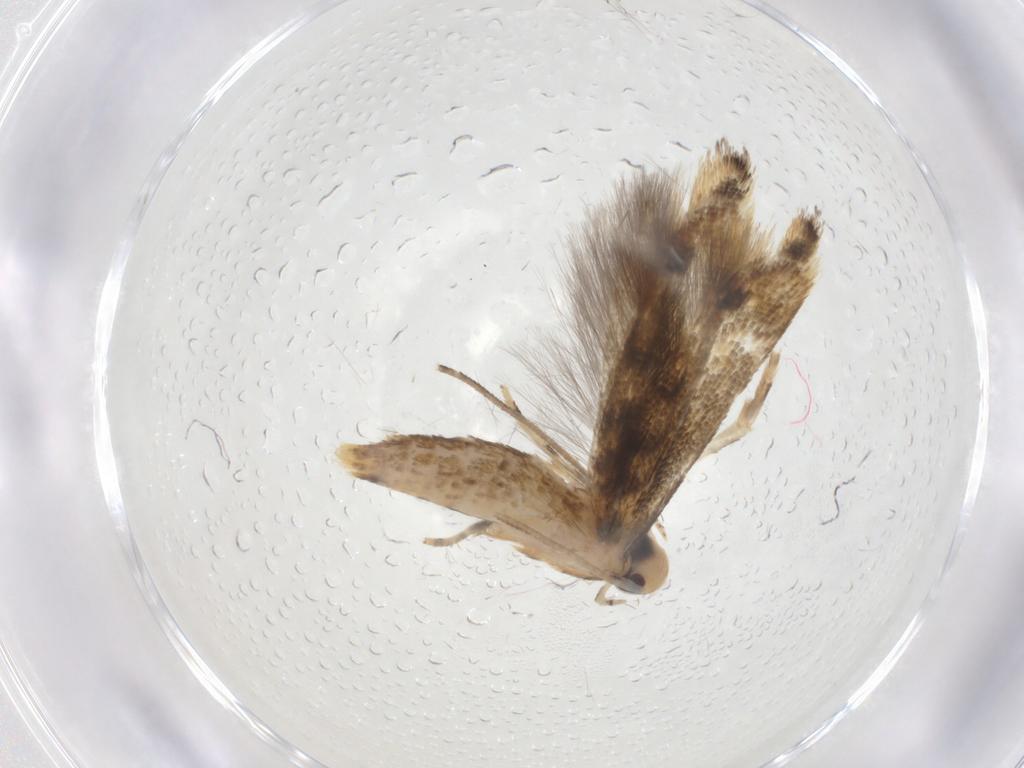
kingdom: Animalia
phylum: Arthropoda
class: Insecta
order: Lepidoptera
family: Momphidae
